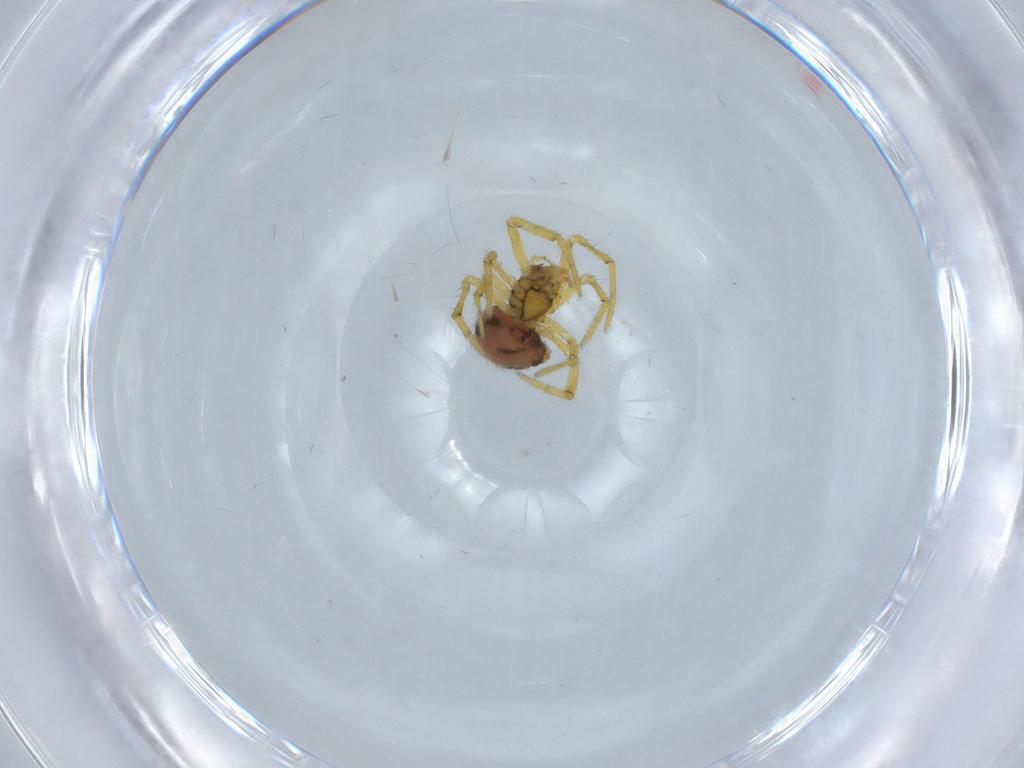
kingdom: Animalia
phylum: Arthropoda
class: Arachnida
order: Araneae
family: Theridiidae
